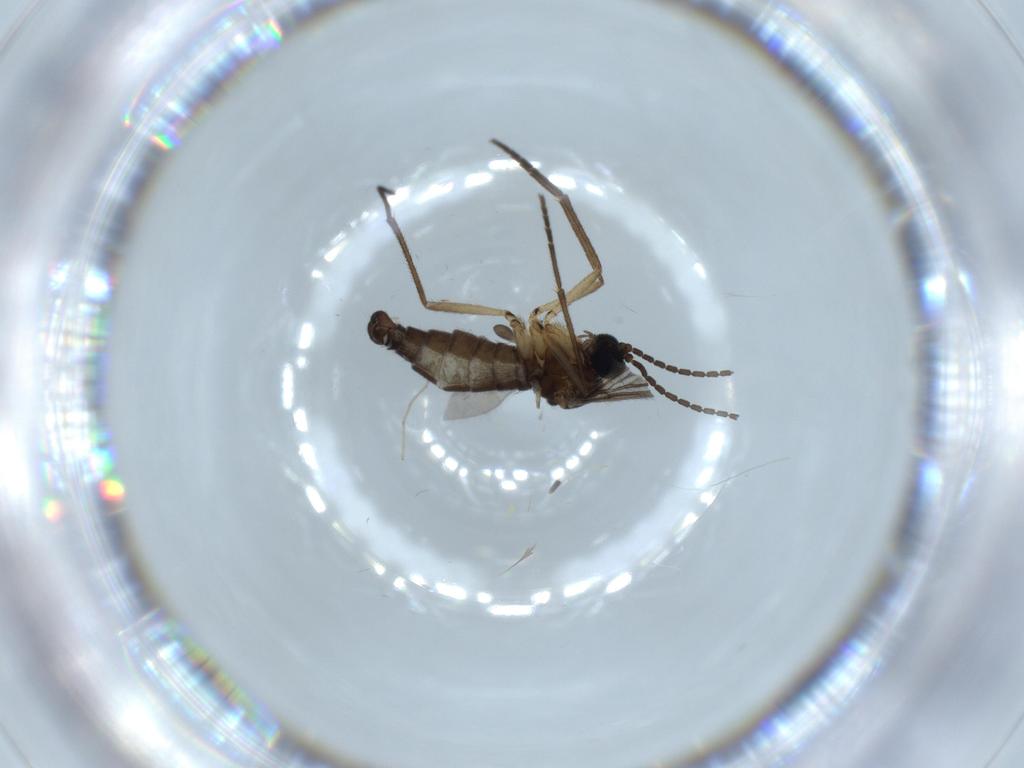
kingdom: Animalia
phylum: Arthropoda
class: Insecta
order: Diptera
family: Sciaridae
